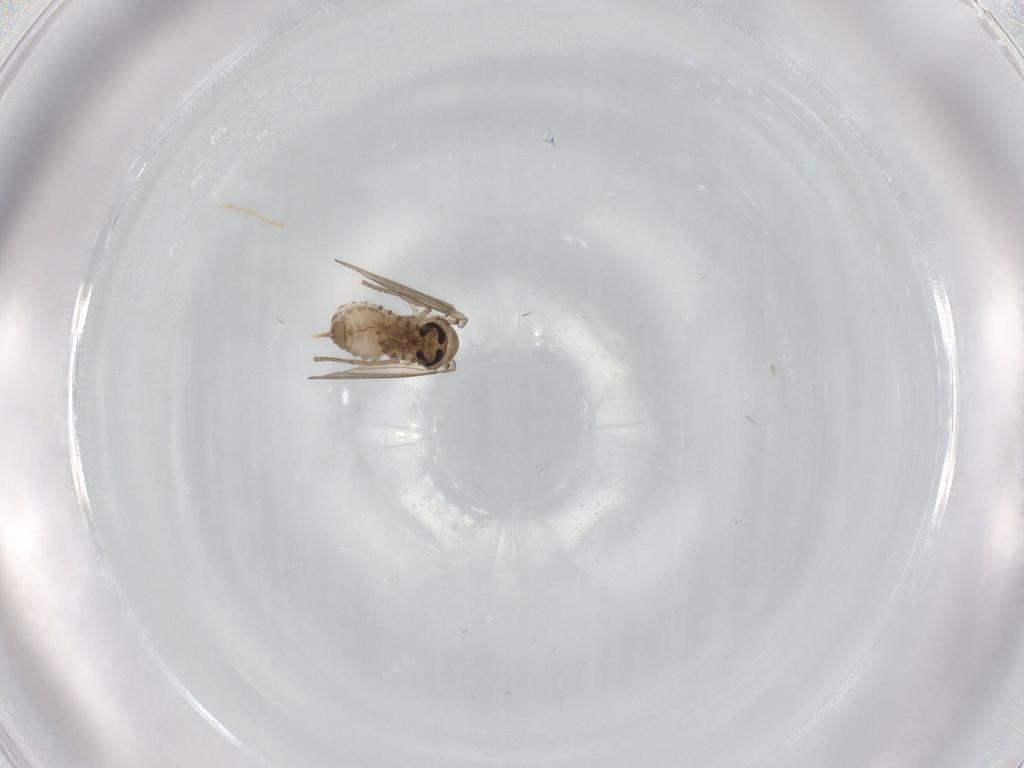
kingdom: Animalia
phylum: Arthropoda
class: Insecta
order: Diptera
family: Psychodidae
